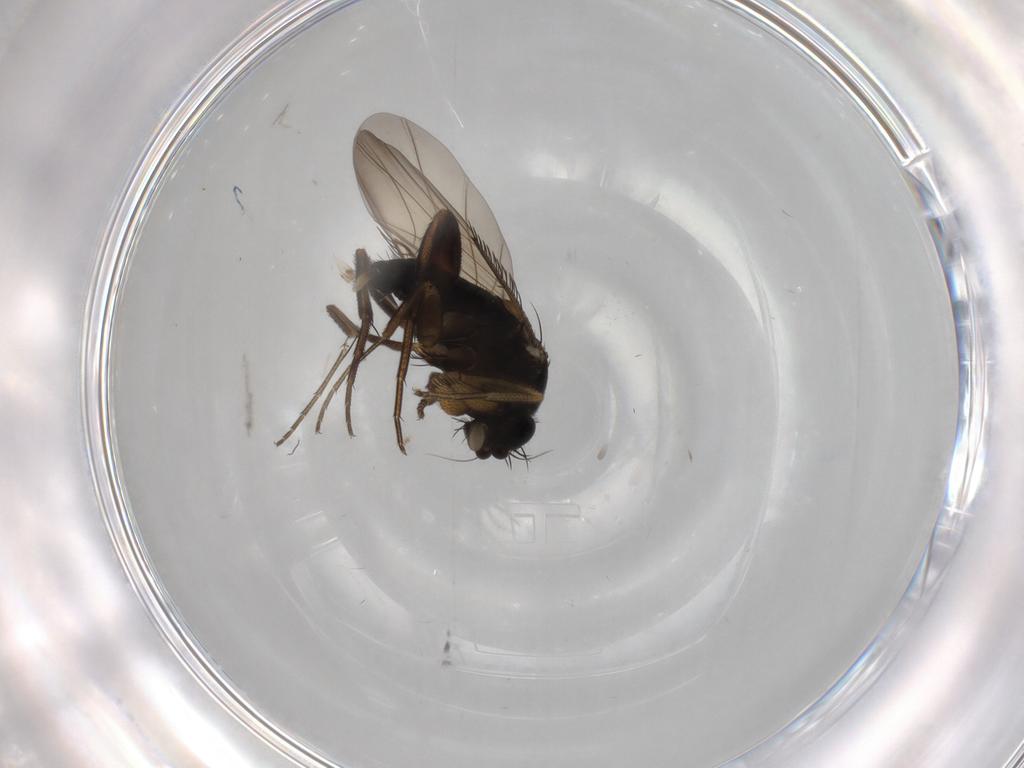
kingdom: Animalia
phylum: Arthropoda
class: Insecta
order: Diptera
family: Phoridae
